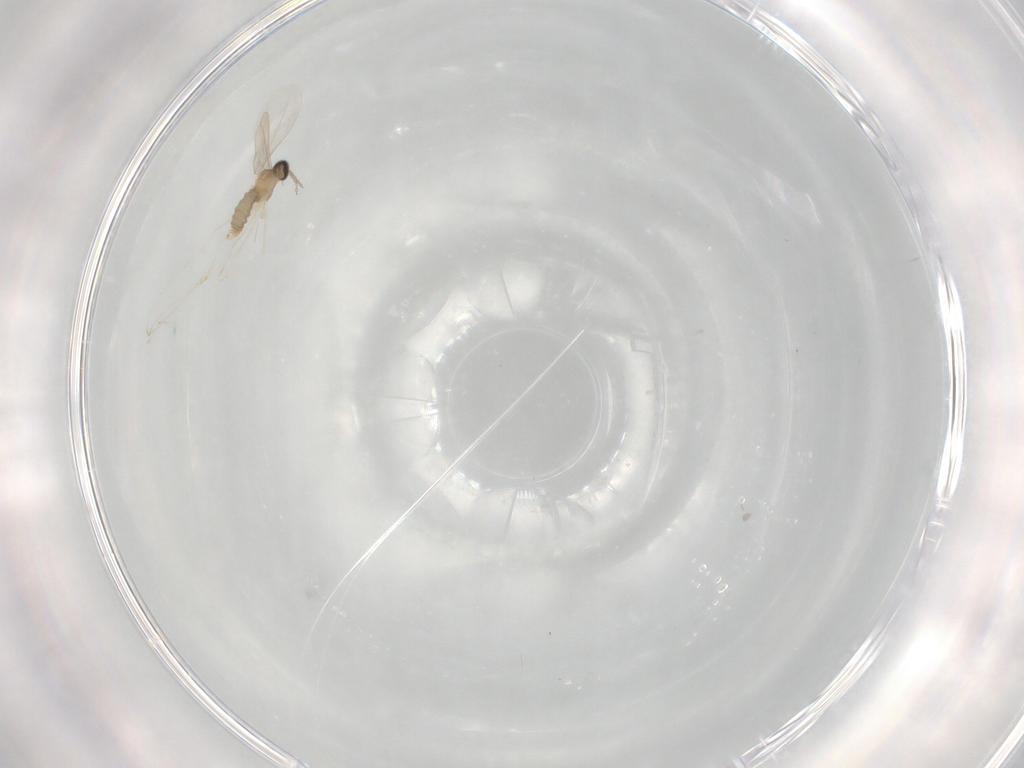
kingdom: Animalia
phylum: Arthropoda
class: Insecta
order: Diptera
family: Cecidomyiidae
